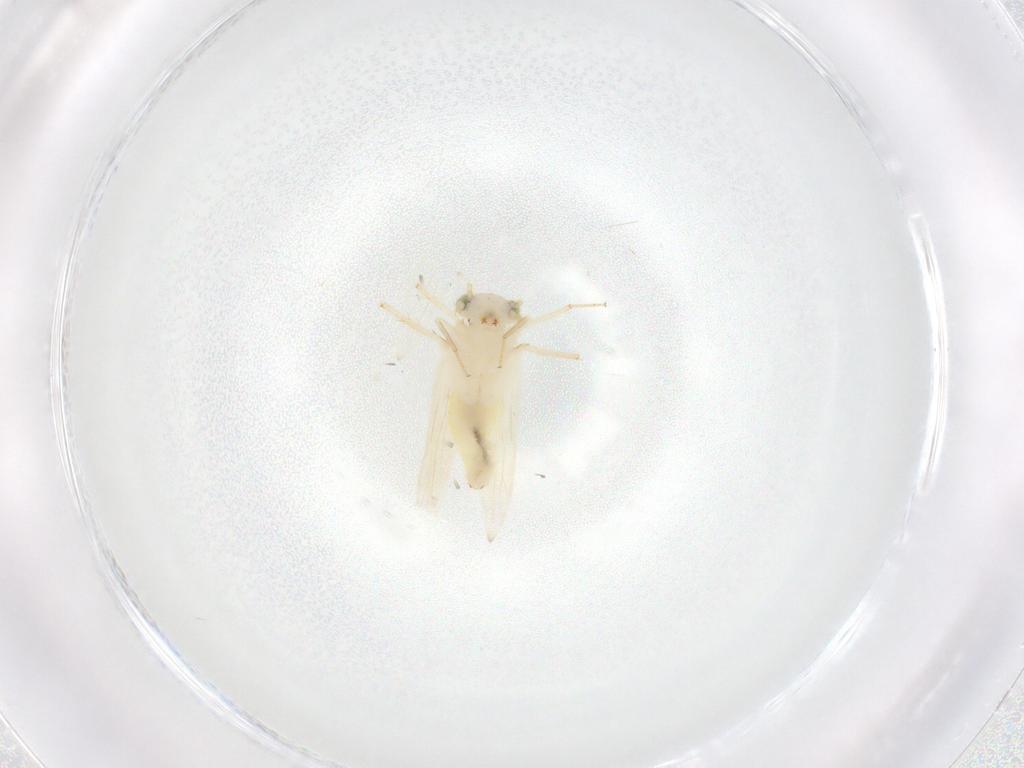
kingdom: Animalia
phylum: Arthropoda
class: Insecta
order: Psocodea
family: Lepidopsocidae
